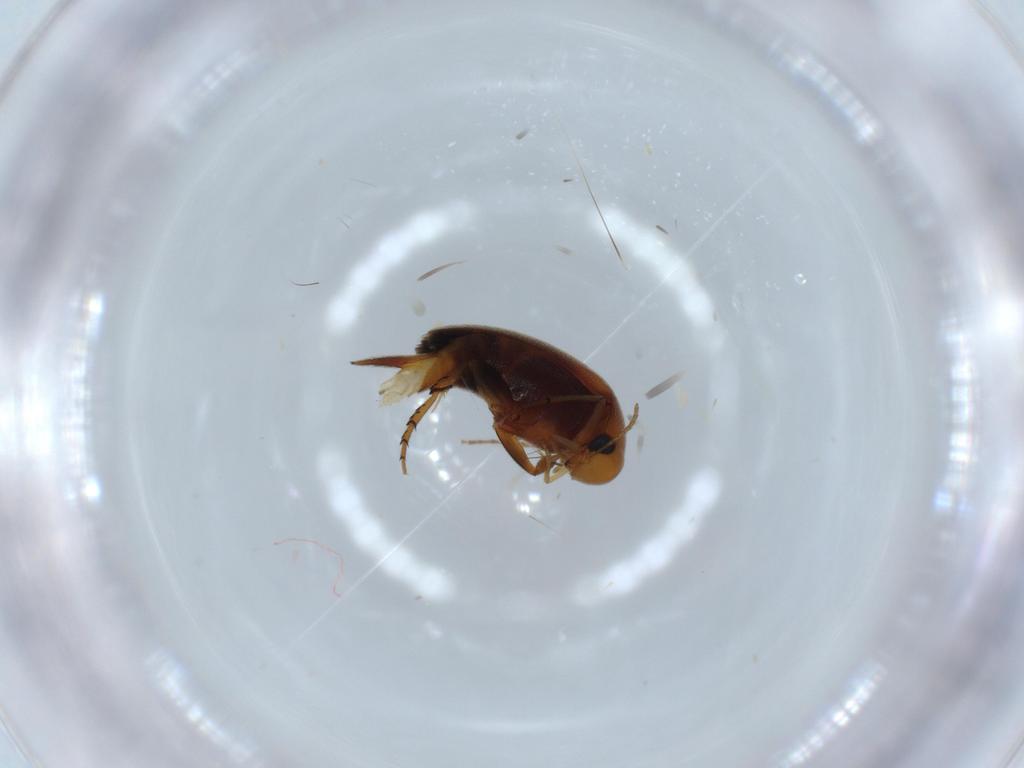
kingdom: Animalia
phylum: Arthropoda
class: Insecta
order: Coleoptera
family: Mordellidae
